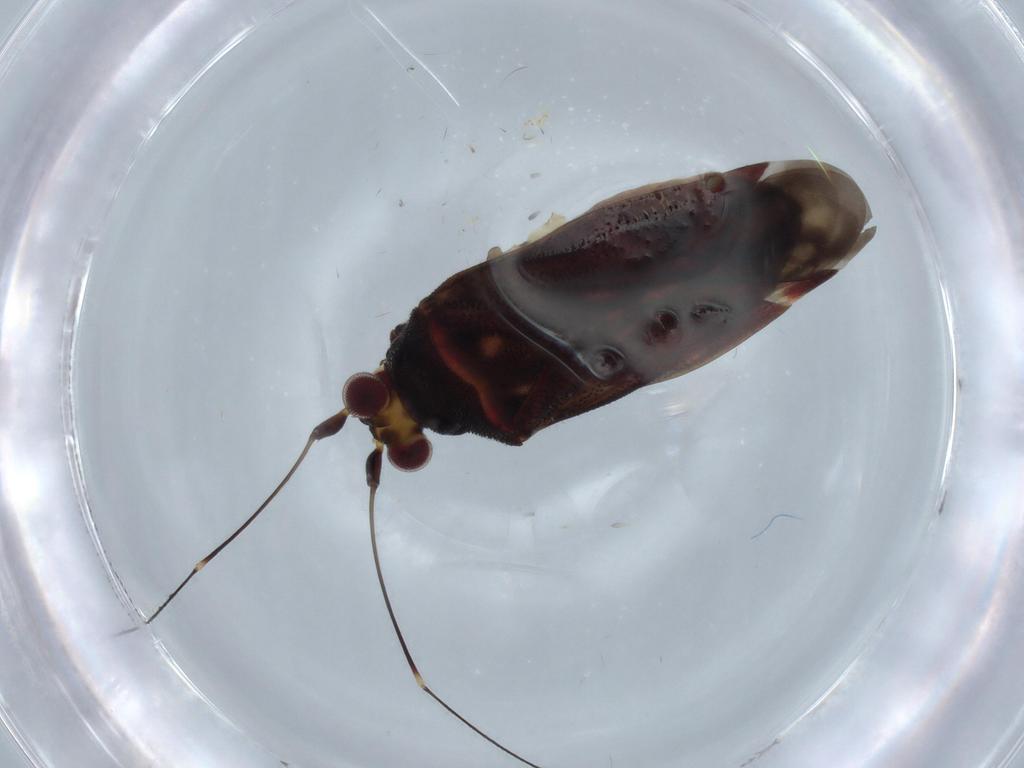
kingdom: Animalia
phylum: Arthropoda
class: Insecta
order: Hemiptera
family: Miridae
